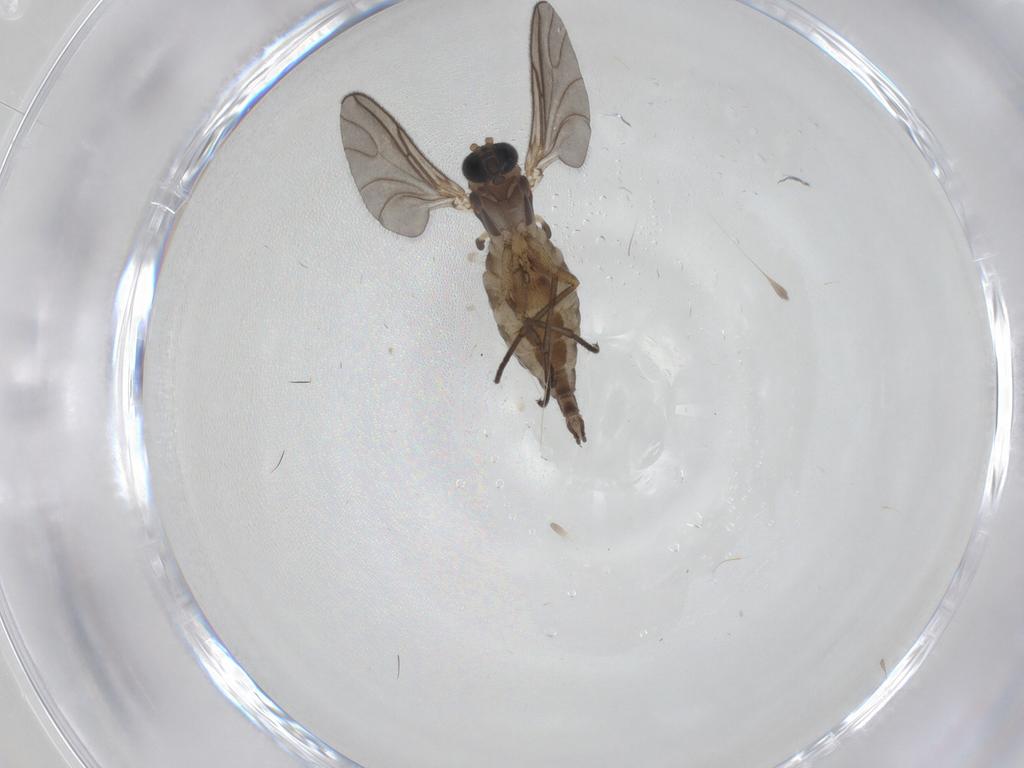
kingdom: Animalia
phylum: Arthropoda
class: Insecta
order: Diptera
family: Sciaridae
